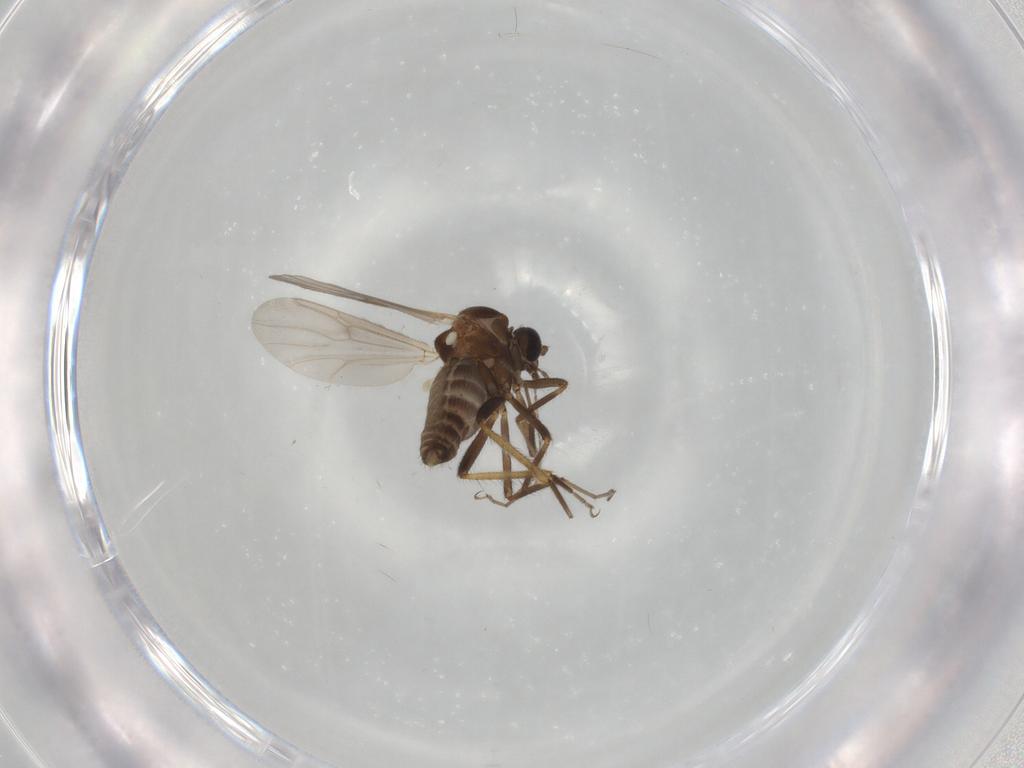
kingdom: Animalia
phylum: Arthropoda
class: Insecta
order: Diptera
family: Ceratopogonidae
